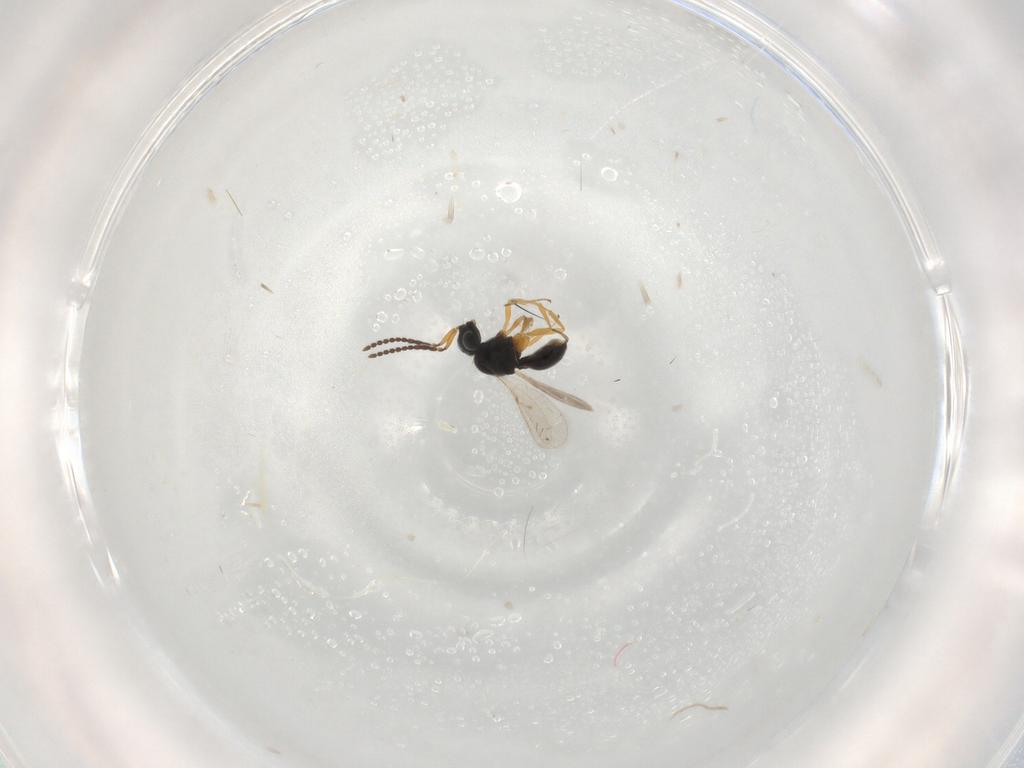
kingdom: Animalia
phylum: Arthropoda
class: Insecta
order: Hymenoptera
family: Scelionidae
